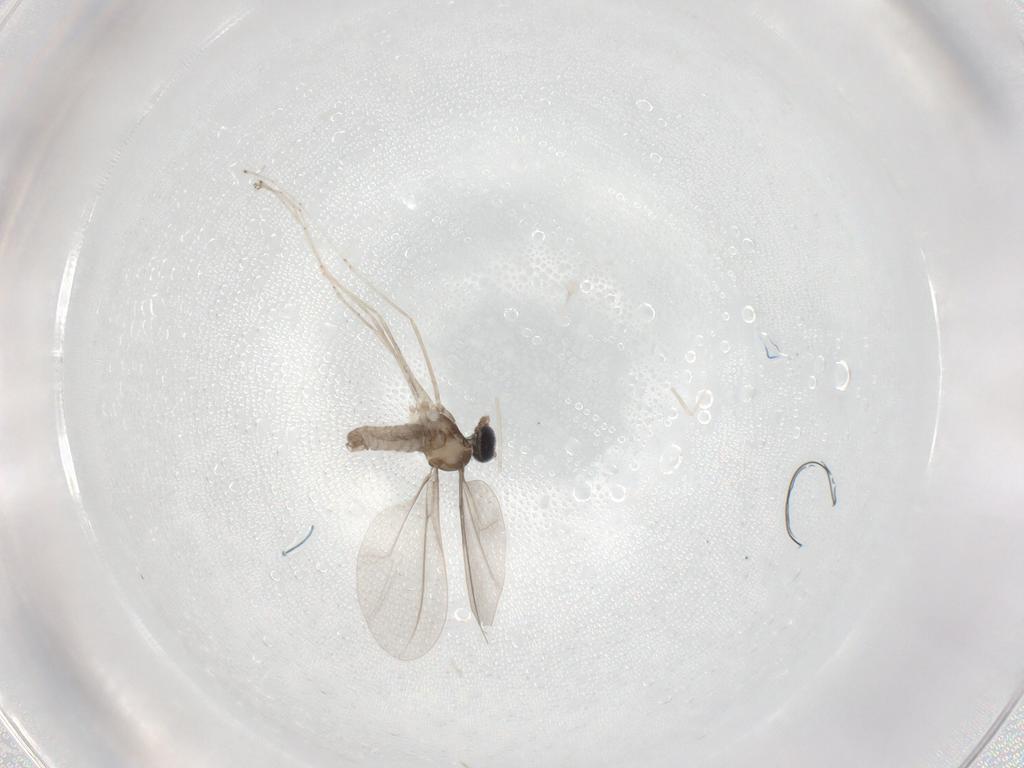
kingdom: Animalia
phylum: Arthropoda
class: Insecta
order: Diptera
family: Cecidomyiidae
